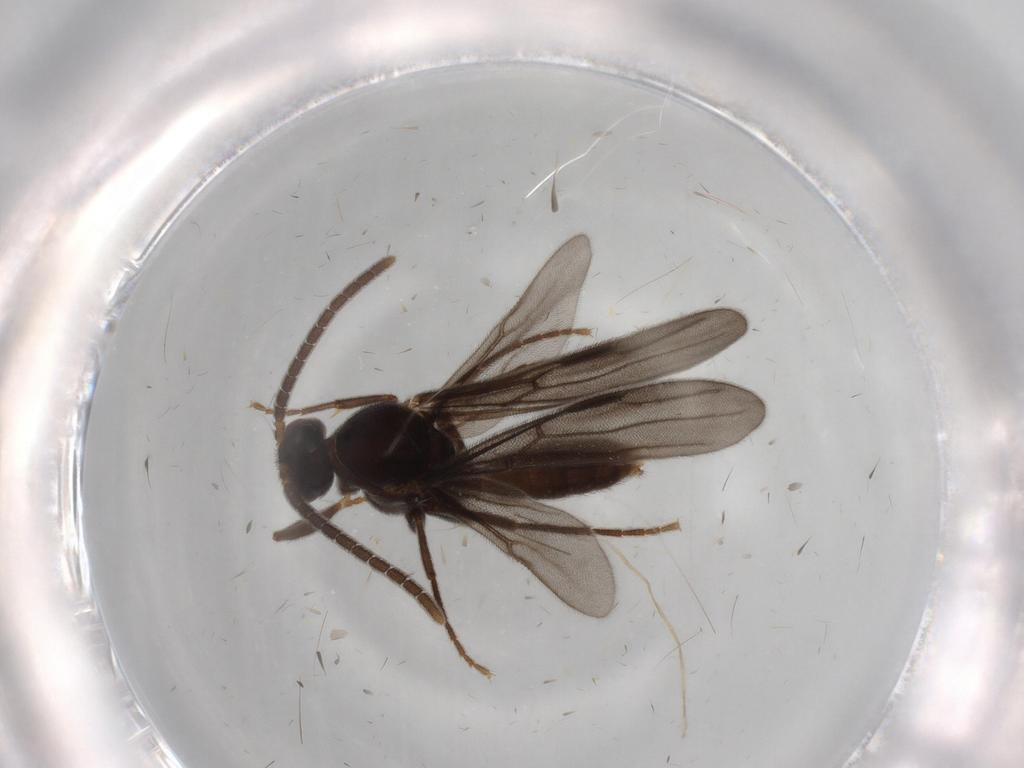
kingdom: Animalia
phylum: Arthropoda
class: Insecta
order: Hymenoptera
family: Formicidae
